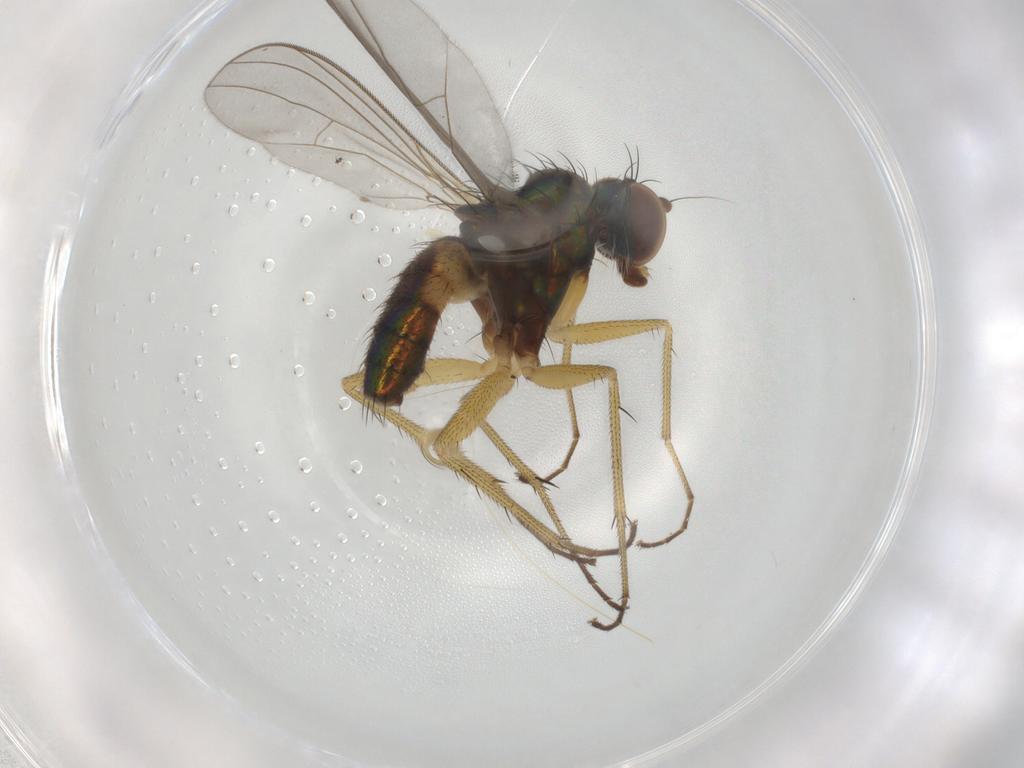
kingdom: Animalia
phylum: Arthropoda
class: Insecta
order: Diptera
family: Dolichopodidae
